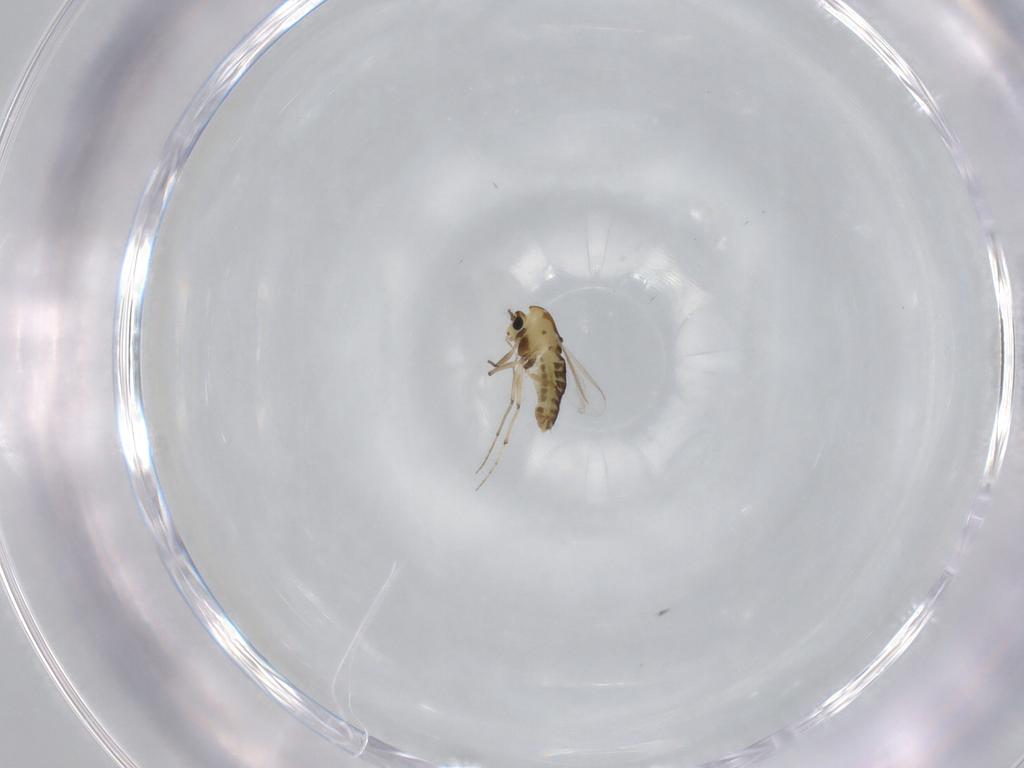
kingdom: Animalia
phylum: Arthropoda
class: Insecta
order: Diptera
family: Chironomidae
